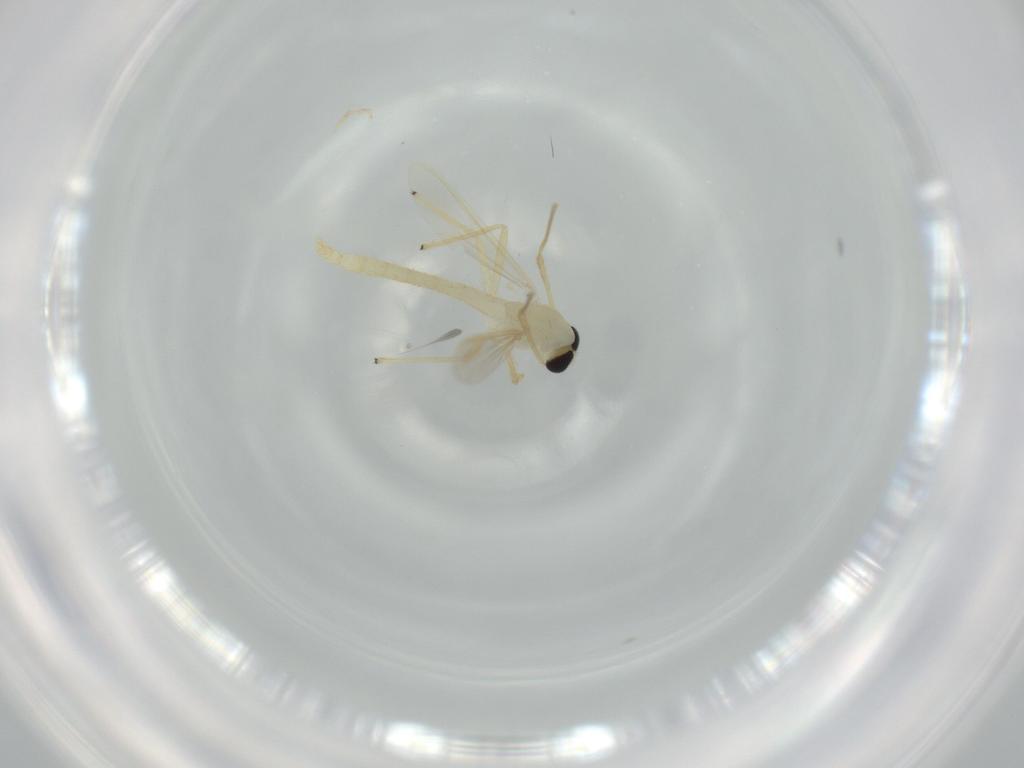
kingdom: Animalia
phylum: Arthropoda
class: Insecta
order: Diptera
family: Chironomidae
